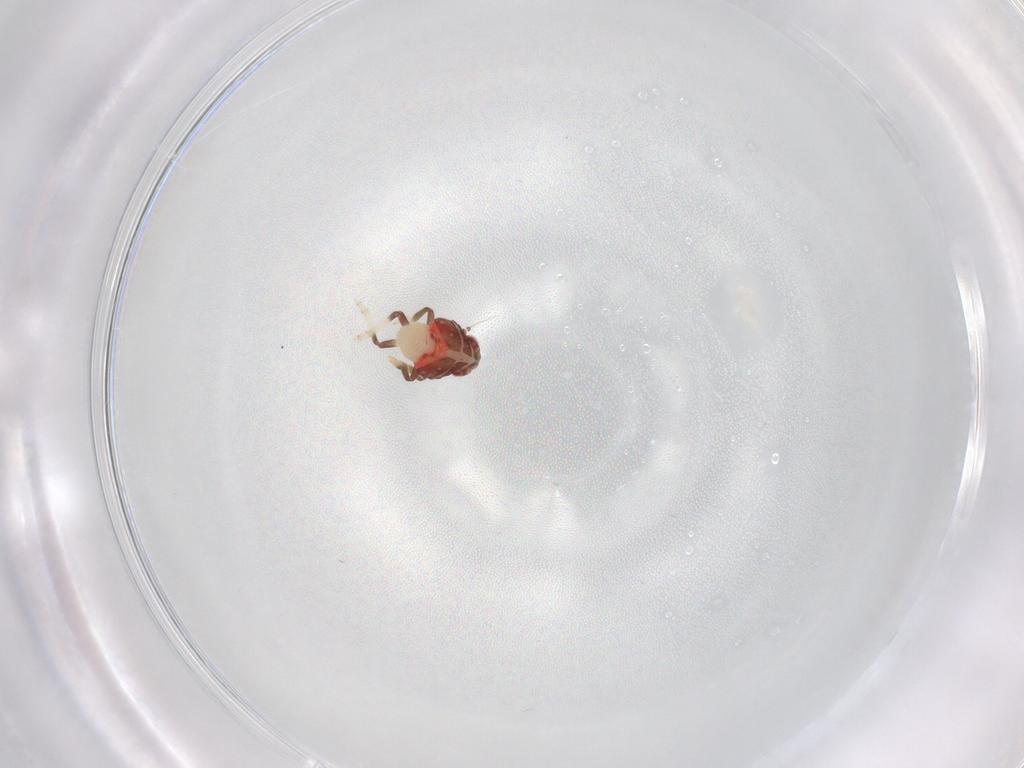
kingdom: Animalia
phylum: Arthropoda
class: Insecta
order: Hemiptera
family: Nogodinidae
